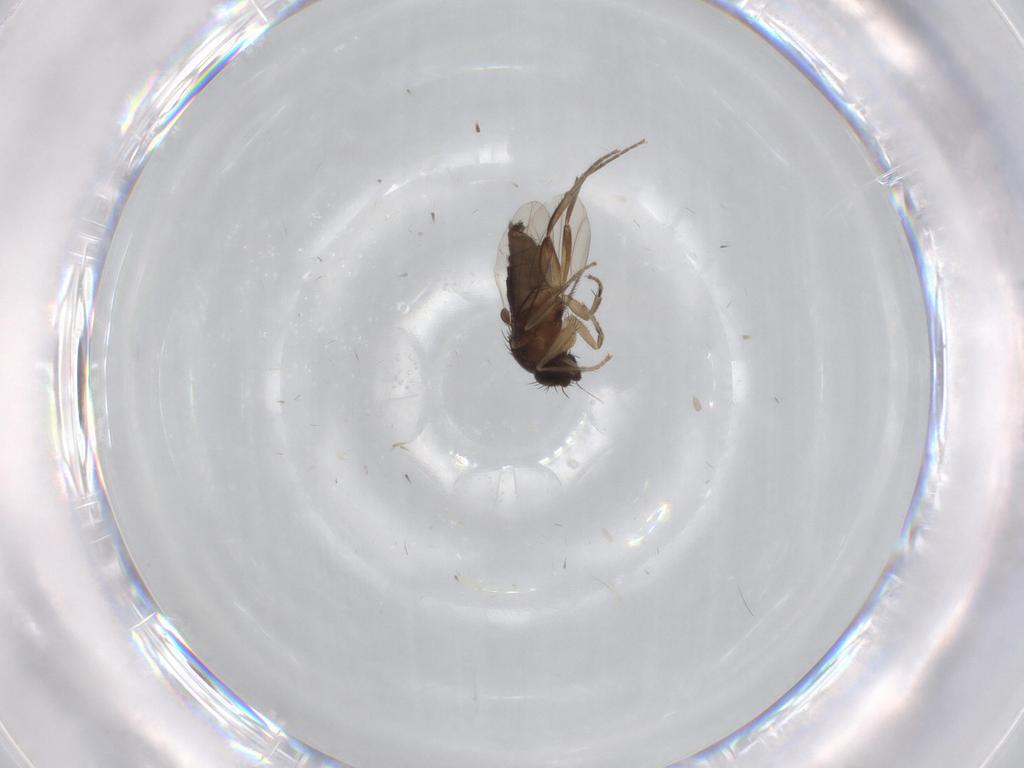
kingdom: Animalia
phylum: Arthropoda
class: Insecta
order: Diptera
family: Phoridae
